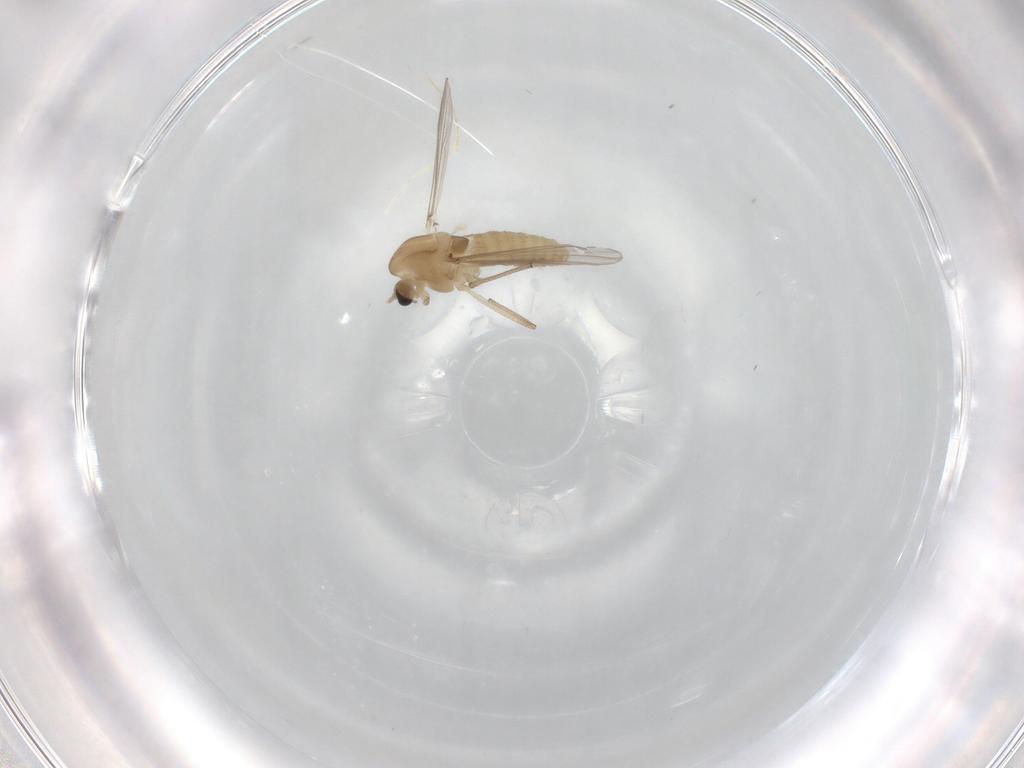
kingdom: Animalia
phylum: Arthropoda
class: Insecta
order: Diptera
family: Chironomidae
